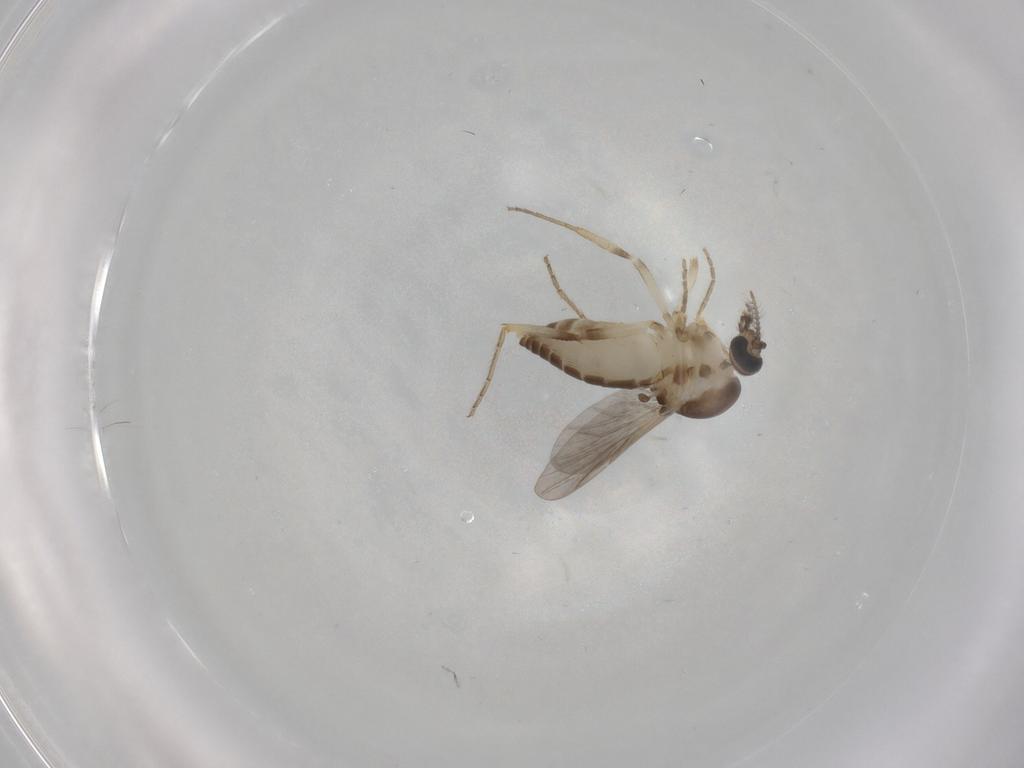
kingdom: Animalia
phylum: Arthropoda
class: Insecta
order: Diptera
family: Ceratopogonidae
